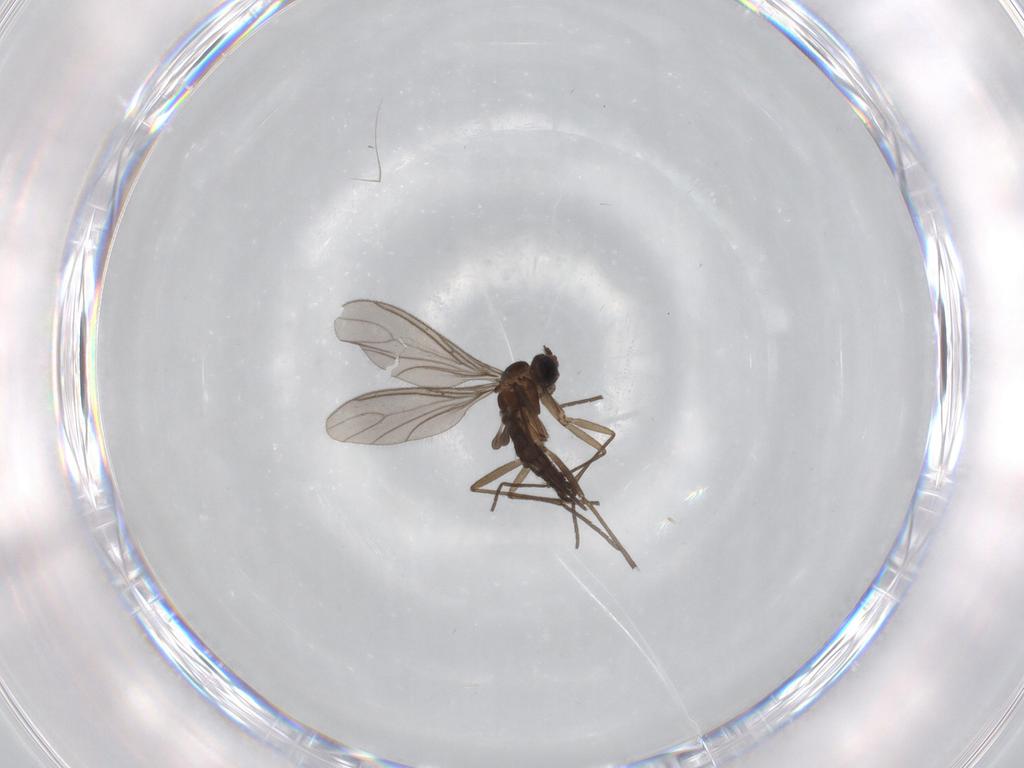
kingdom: Animalia
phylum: Arthropoda
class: Insecta
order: Diptera
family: Sciaridae
